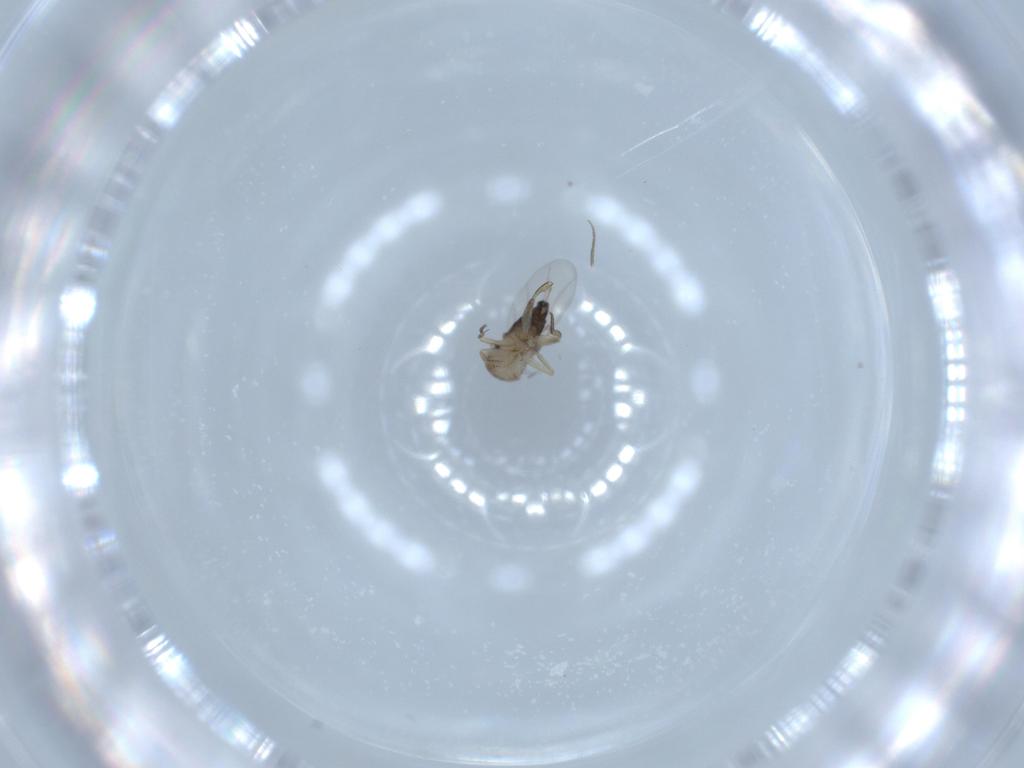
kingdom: Animalia
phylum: Arthropoda
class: Insecta
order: Diptera
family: Phoridae
